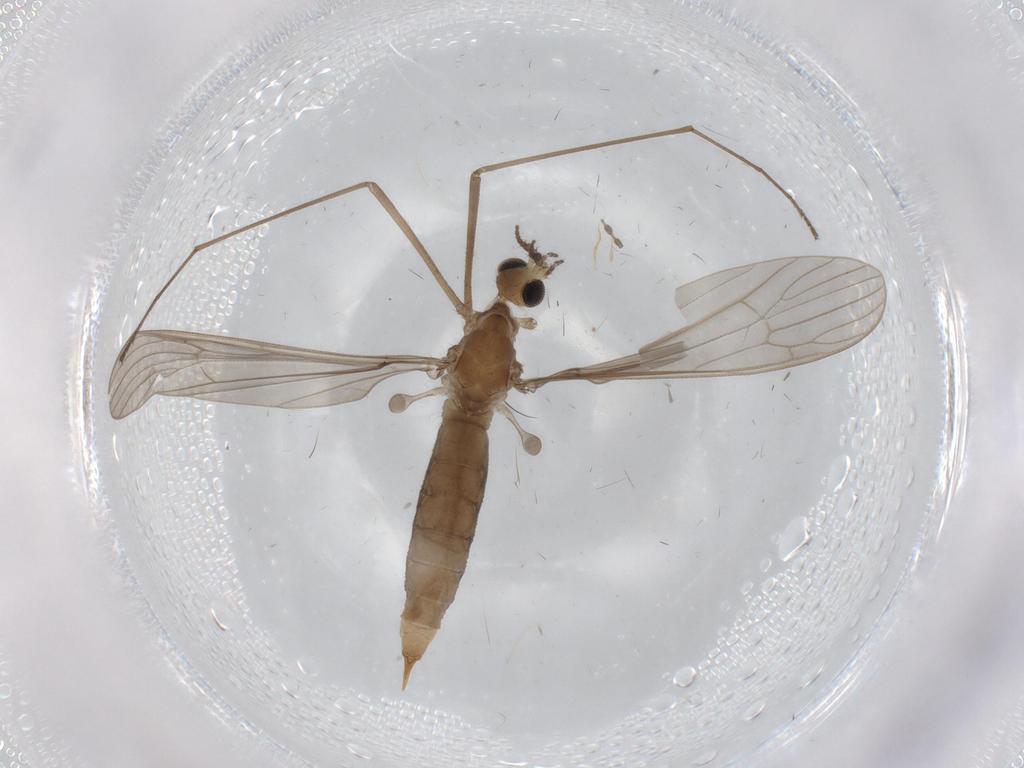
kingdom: Animalia
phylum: Arthropoda
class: Insecta
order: Diptera
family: Limoniidae
